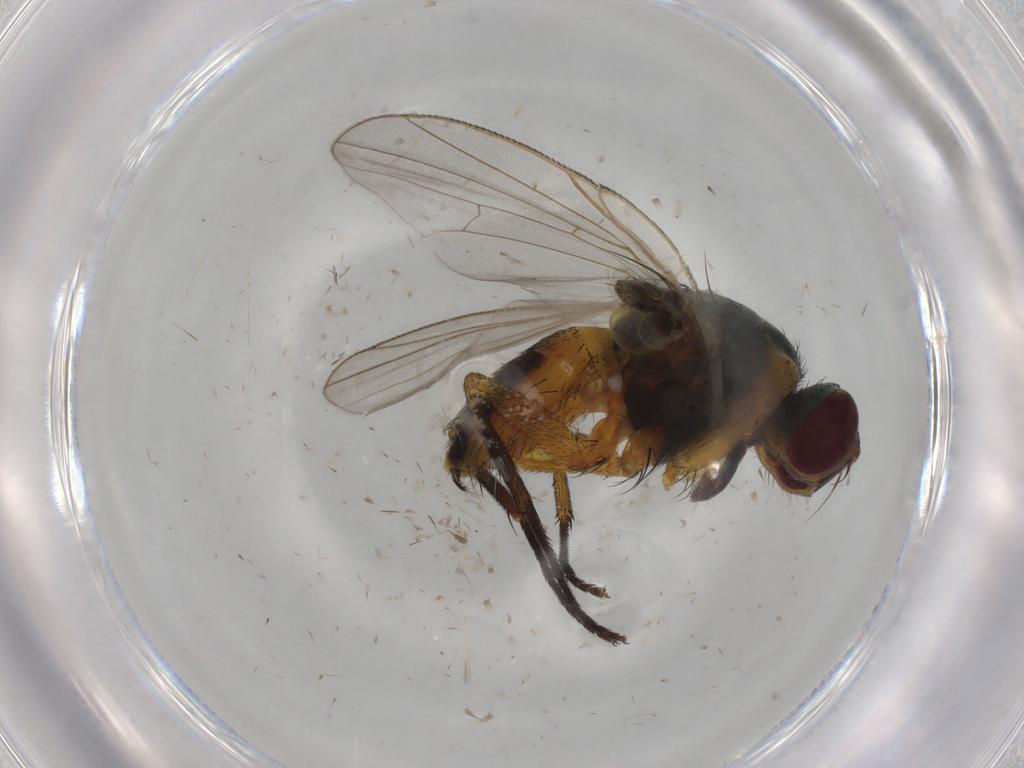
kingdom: Animalia
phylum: Arthropoda
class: Insecta
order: Diptera
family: Muscidae
